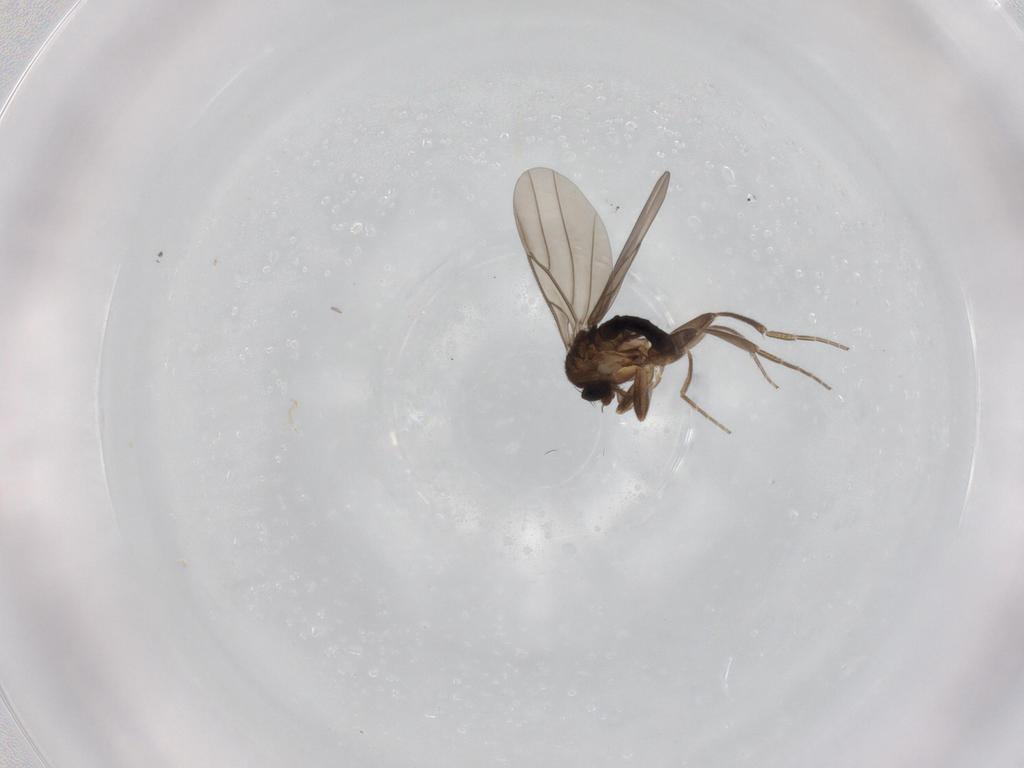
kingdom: Animalia
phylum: Arthropoda
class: Insecta
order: Diptera
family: Phoridae
